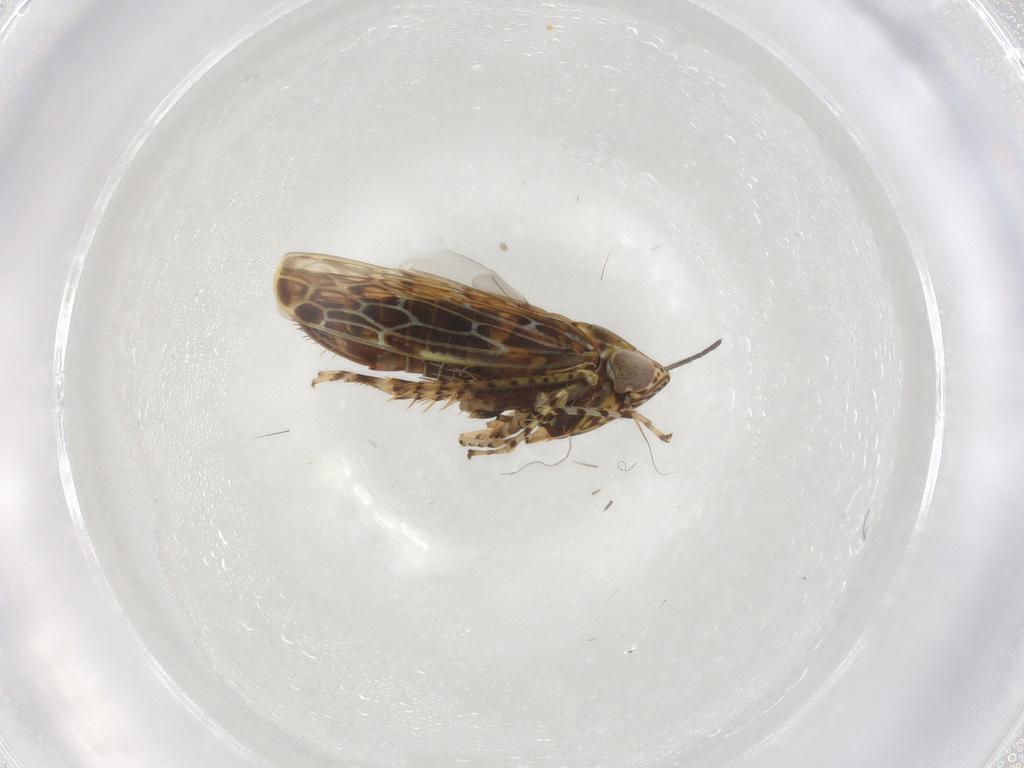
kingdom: Animalia
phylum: Arthropoda
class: Insecta
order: Hemiptera
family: Cicadellidae
